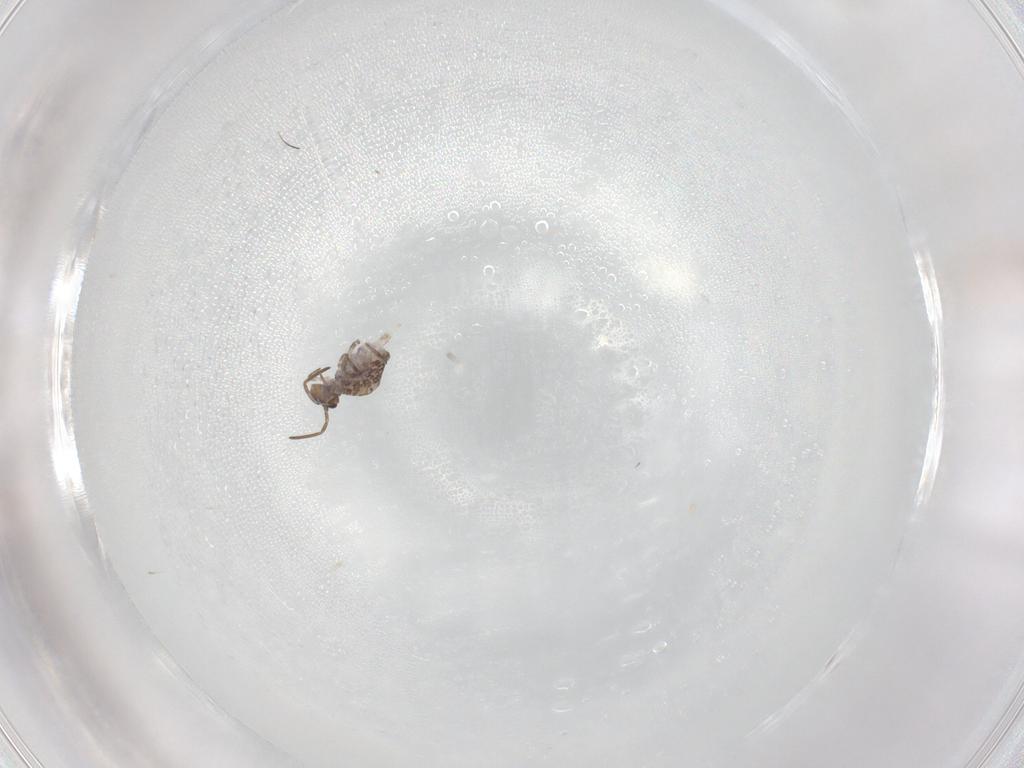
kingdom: Animalia
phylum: Arthropoda
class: Collembola
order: Symphypleona
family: Katiannidae
